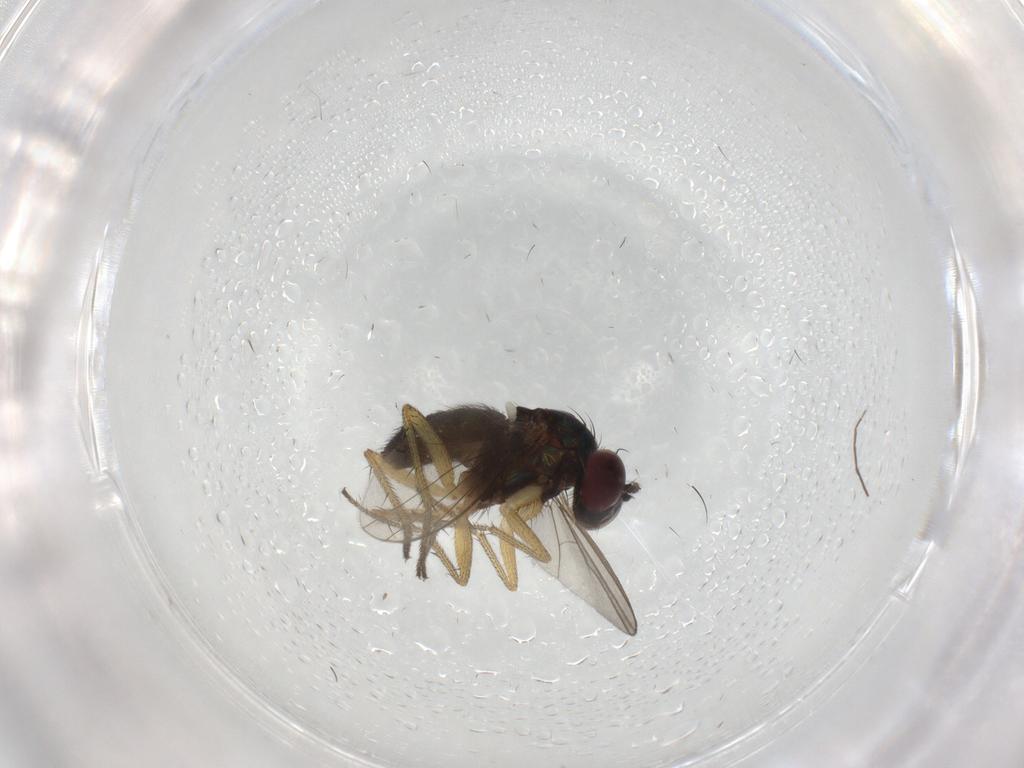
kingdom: Animalia
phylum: Arthropoda
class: Insecta
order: Diptera
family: Dolichopodidae
